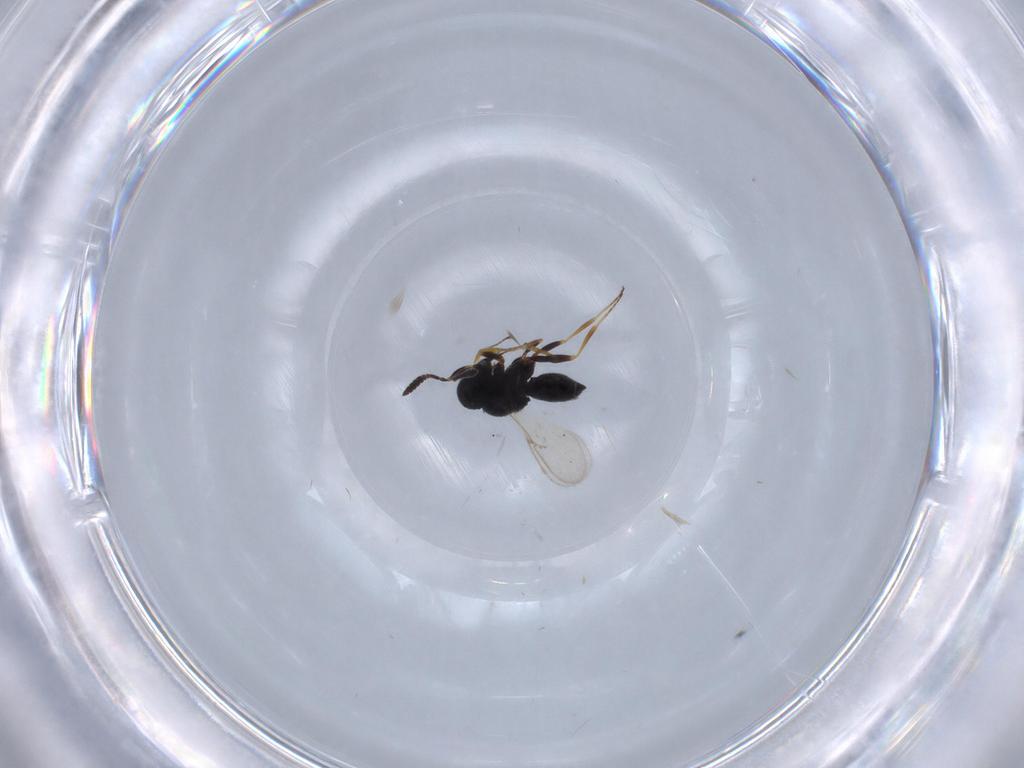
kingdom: Animalia
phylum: Arthropoda
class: Insecta
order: Hymenoptera
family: Scelionidae
